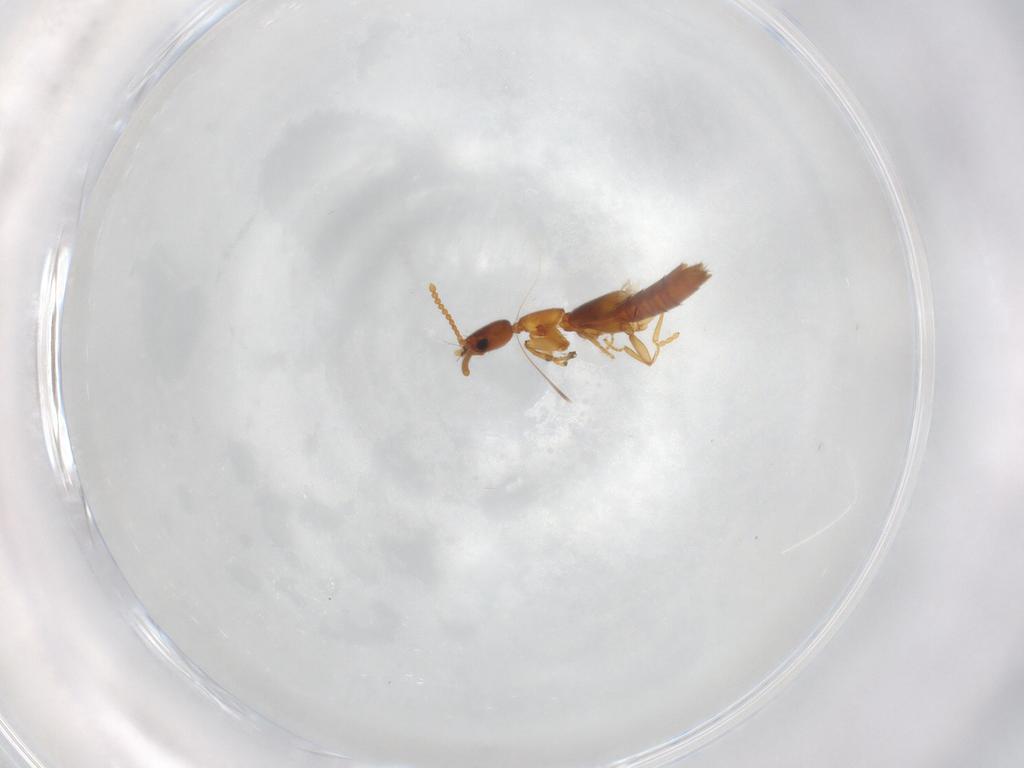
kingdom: Animalia
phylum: Arthropoda
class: Insecta
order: Coleoptera
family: Carabidae
